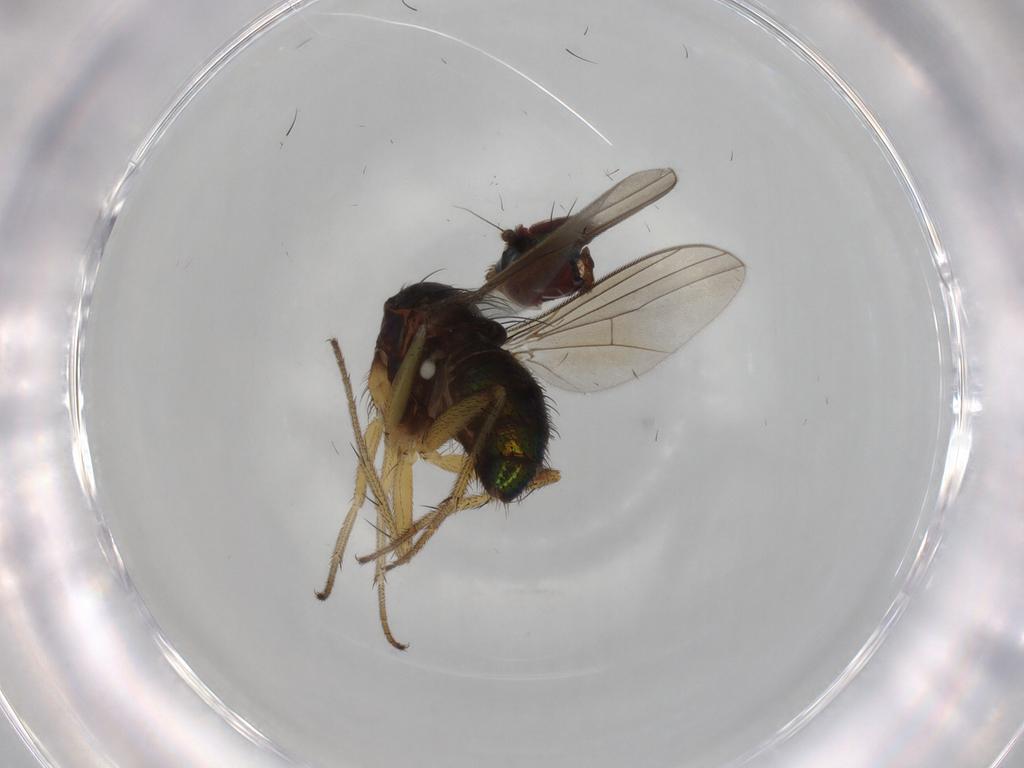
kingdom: Animalia
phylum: Arthropoda
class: Insecta
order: Diptera
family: Dolichopodidae
